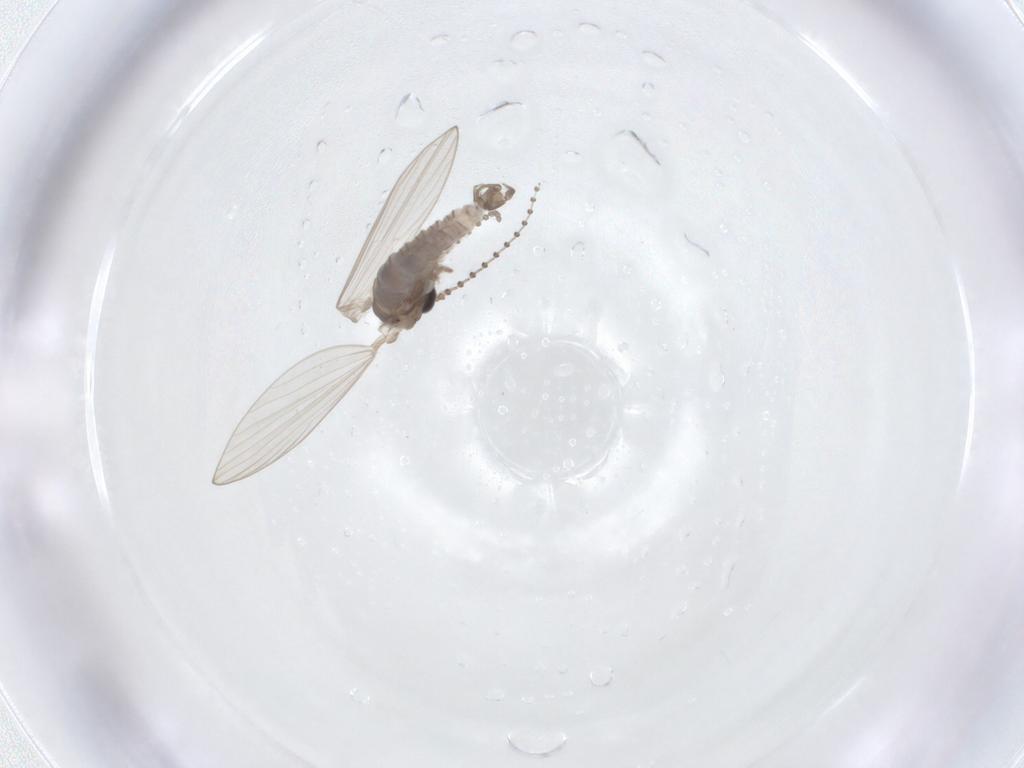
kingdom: Animalia
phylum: Arthropoda
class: Insecta
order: Diptera
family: Psychodidae
